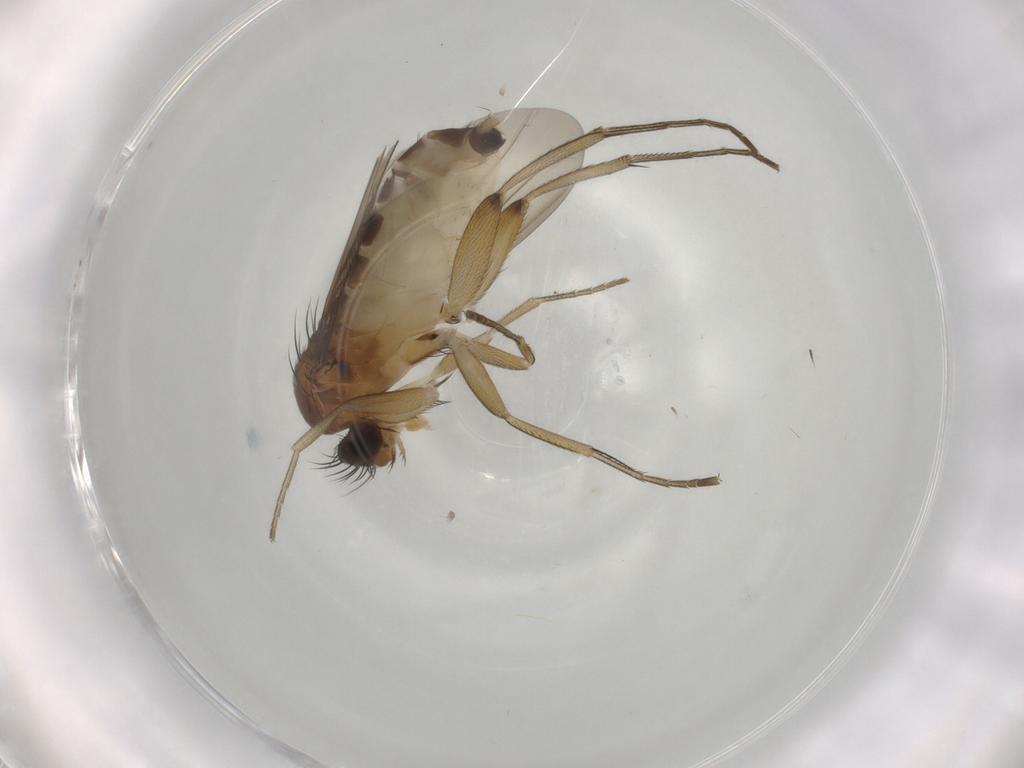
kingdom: Animalia
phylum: Arthropoda
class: Insecta
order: Diptera
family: Phoridae
